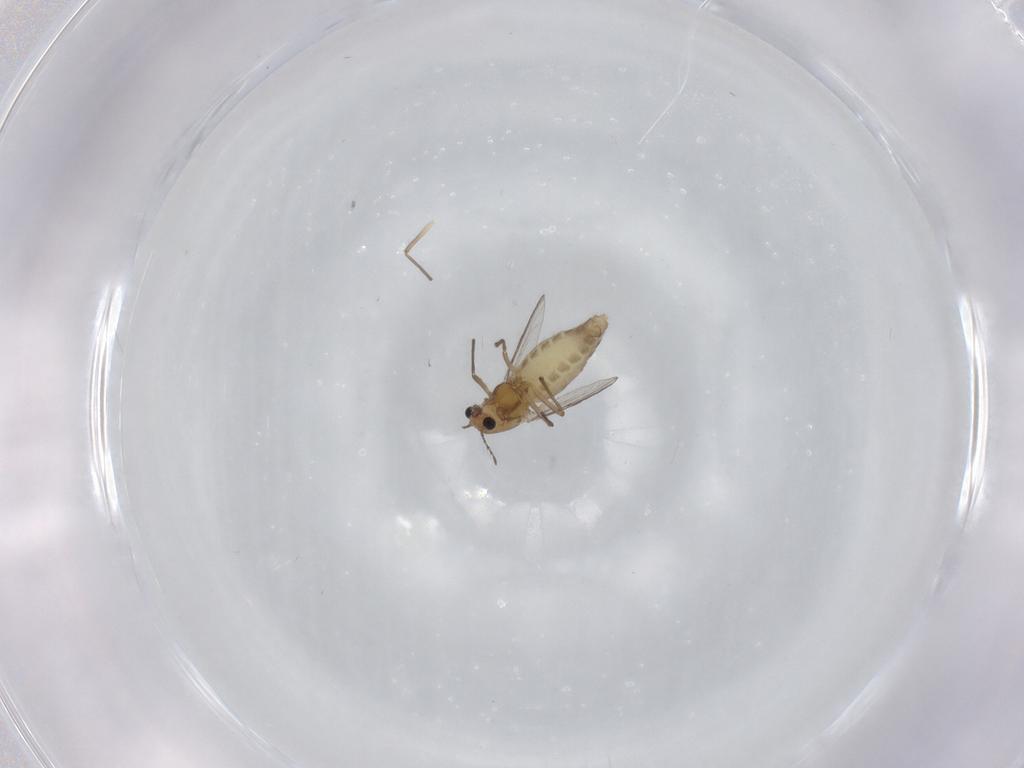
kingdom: Animalia
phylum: Arthropoda
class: Insecta
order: Diptera
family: Chironomidae
